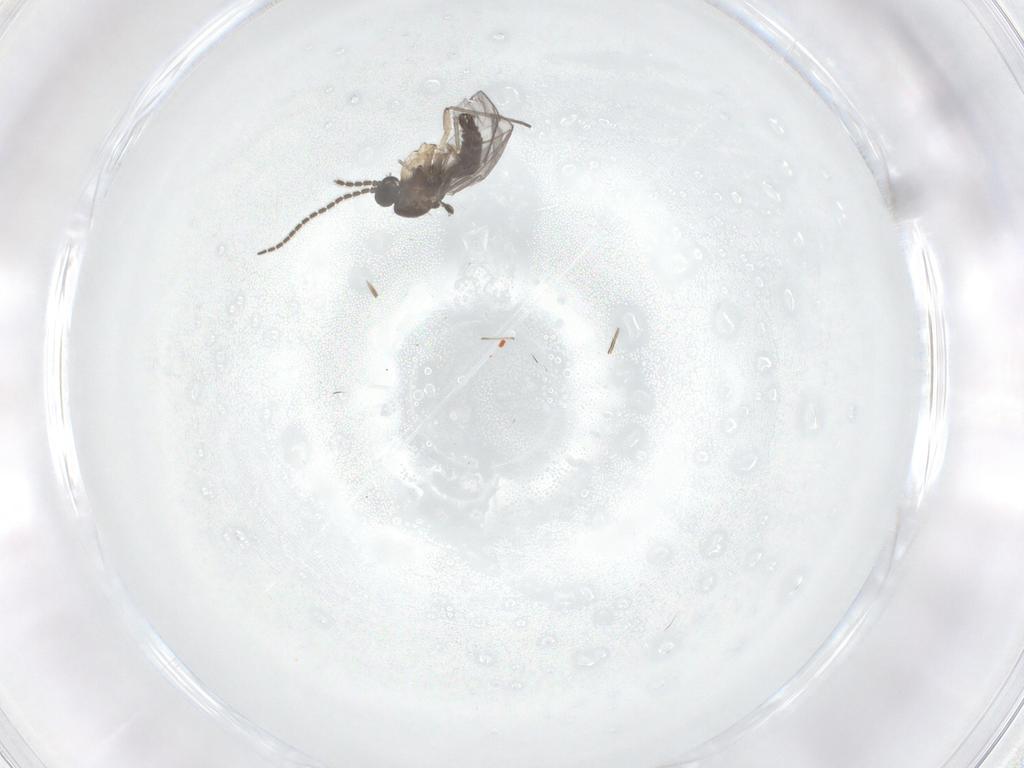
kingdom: Animalia
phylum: Arthropoda
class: Insecta
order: Diptera
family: Sciaridae
